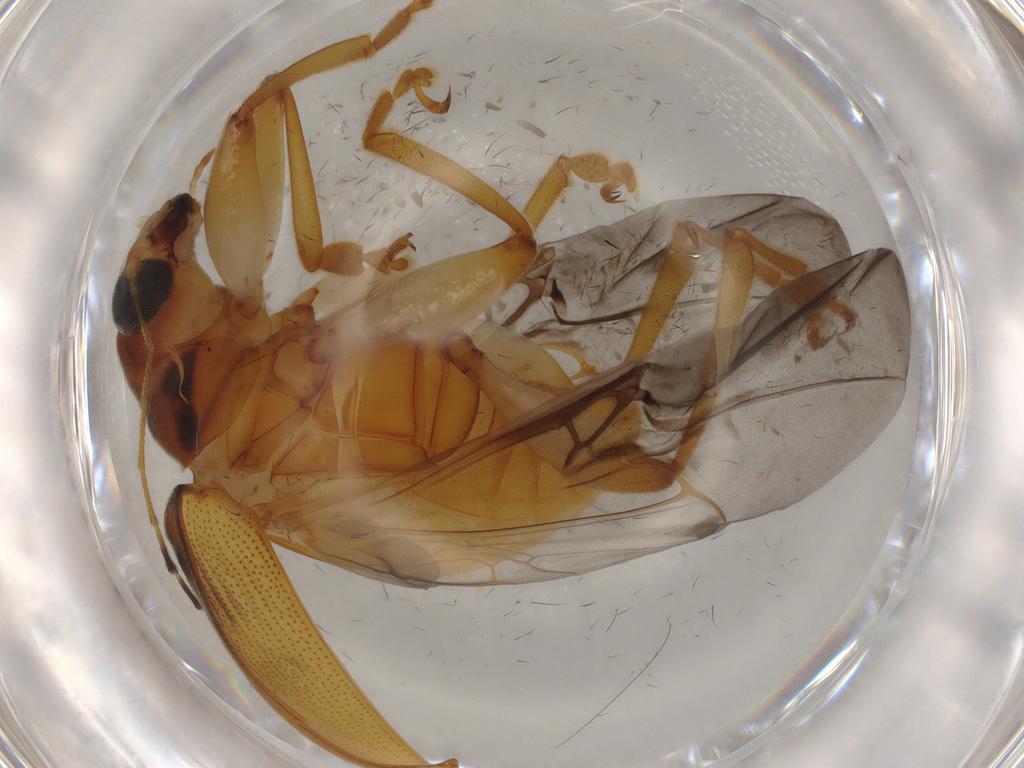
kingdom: Animalia
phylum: Arthropoda
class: Insecta
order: Coleoptera
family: Chrysomelidae
